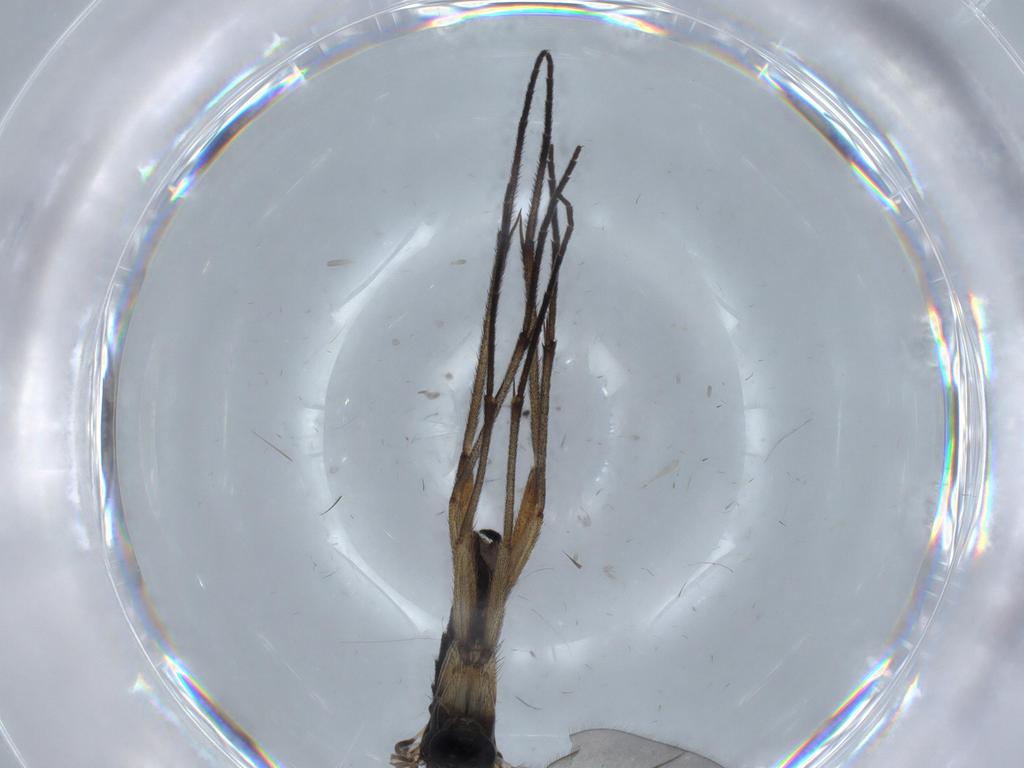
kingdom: Animalia
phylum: Arthropoda
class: Insecta
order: Diptera
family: Sciaridae
